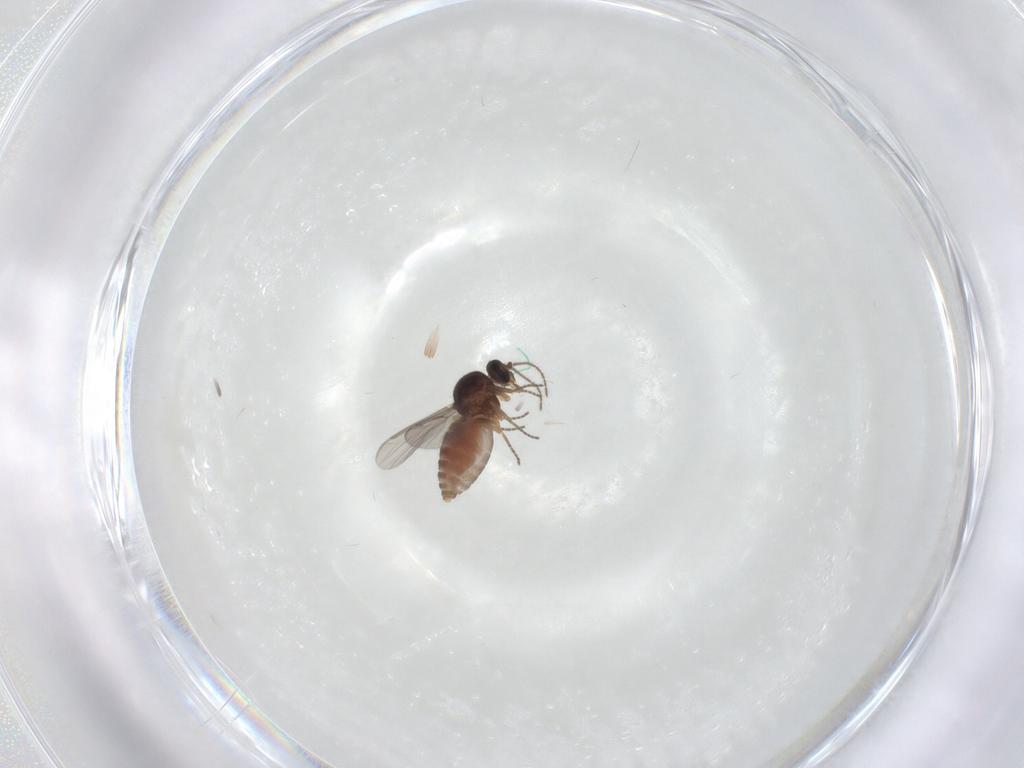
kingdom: Animalia
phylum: Arthropoda
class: Insecta
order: Diptera
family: Ceratopogonidae
